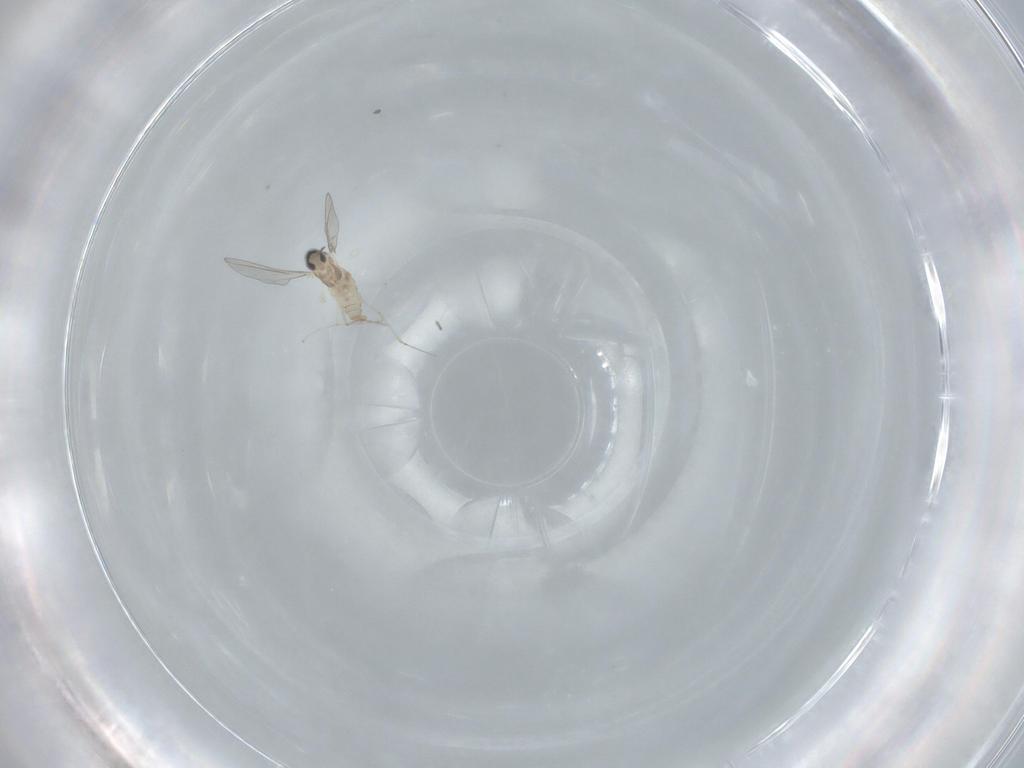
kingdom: Animalia
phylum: Arthropoda
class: Insecta
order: Diptera
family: Cecidomyiidae
